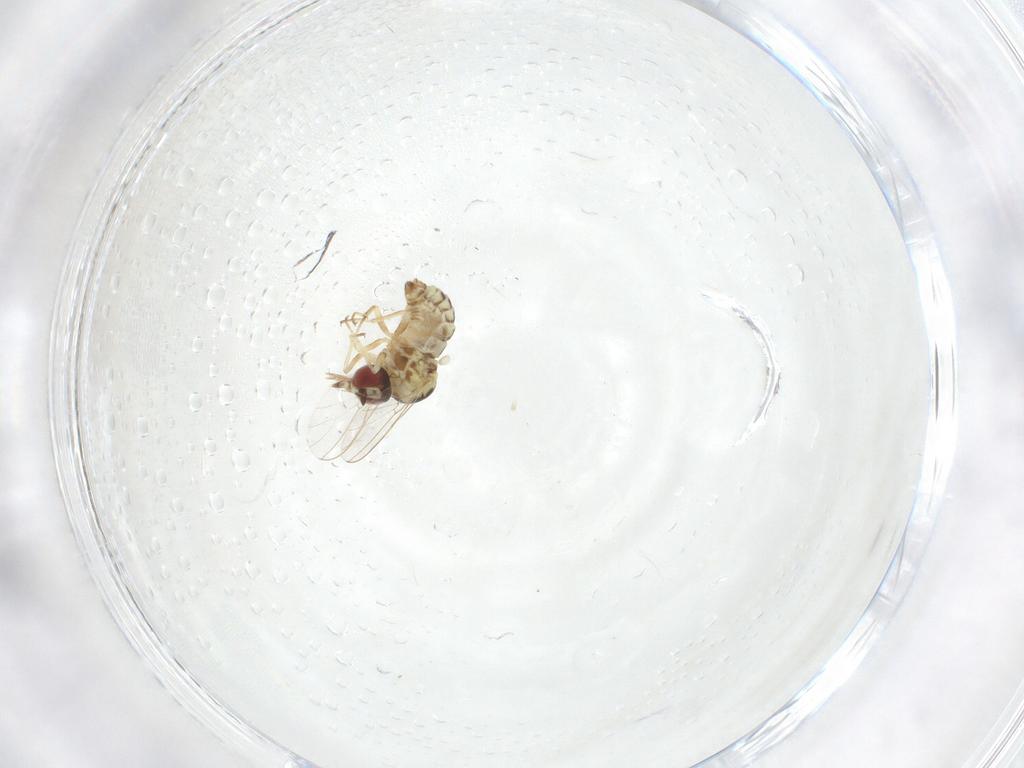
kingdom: Animalia
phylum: Arthropoda
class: Insecta
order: Diptera
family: Bombyliidae
